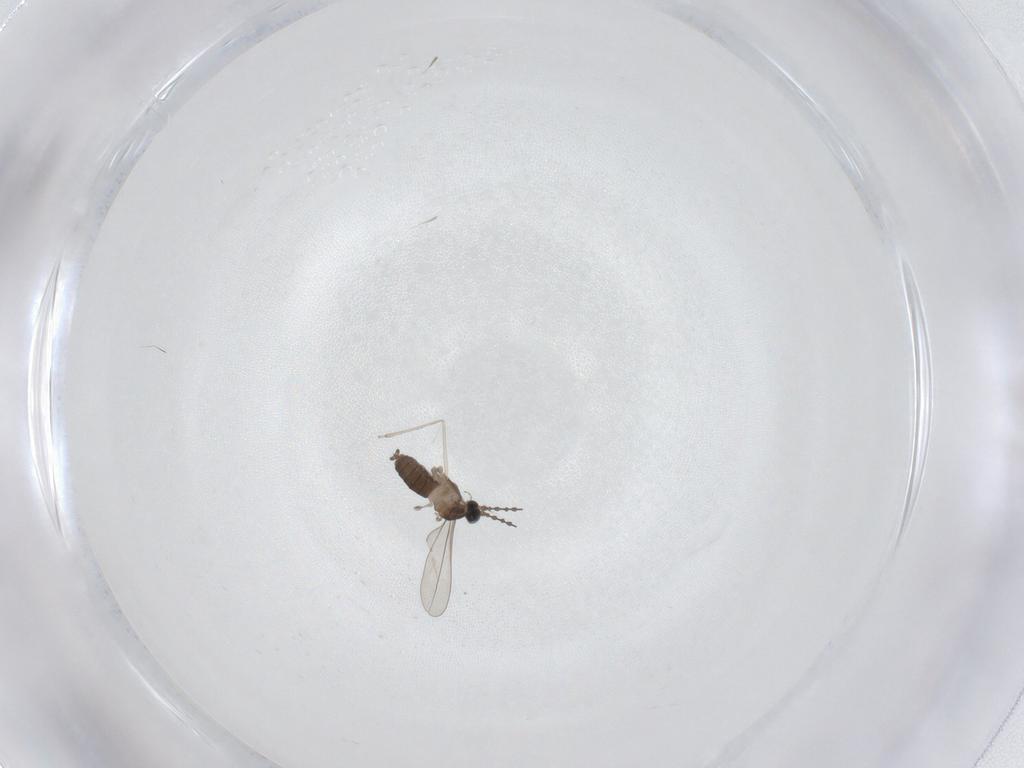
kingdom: Animalia
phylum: Arthropoda
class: Insecta
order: Diptera
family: Cecidomyiidae
